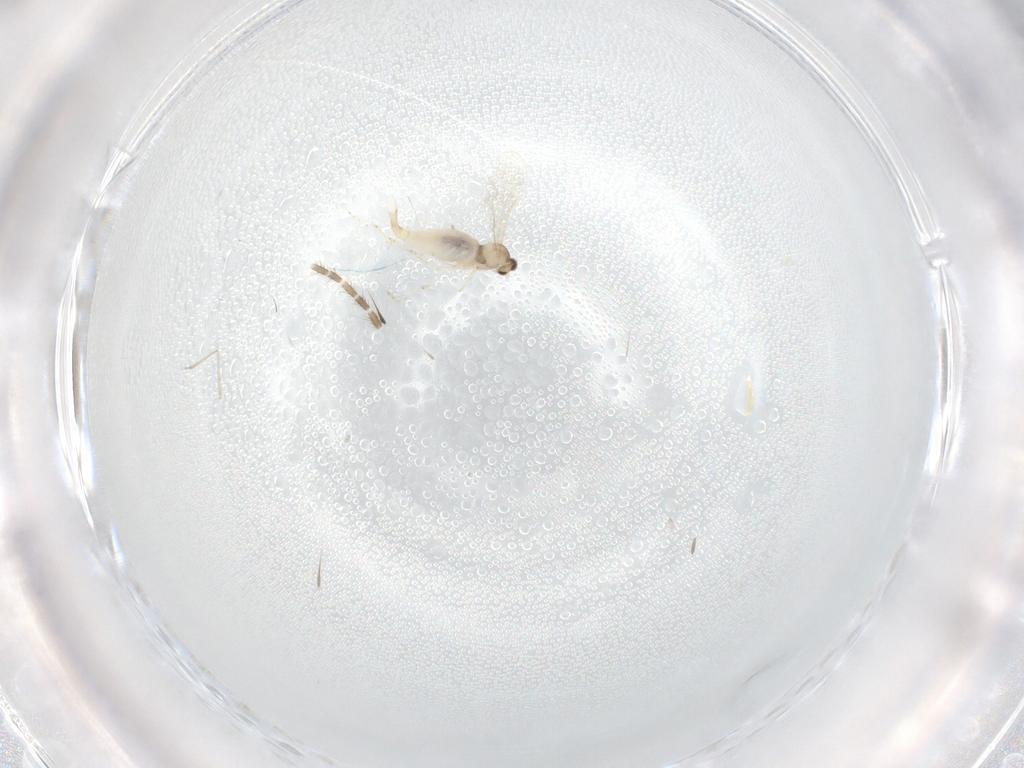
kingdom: Animalia
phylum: Arthropoda
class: Insecta
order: Diptera
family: Cecidomyiidae
